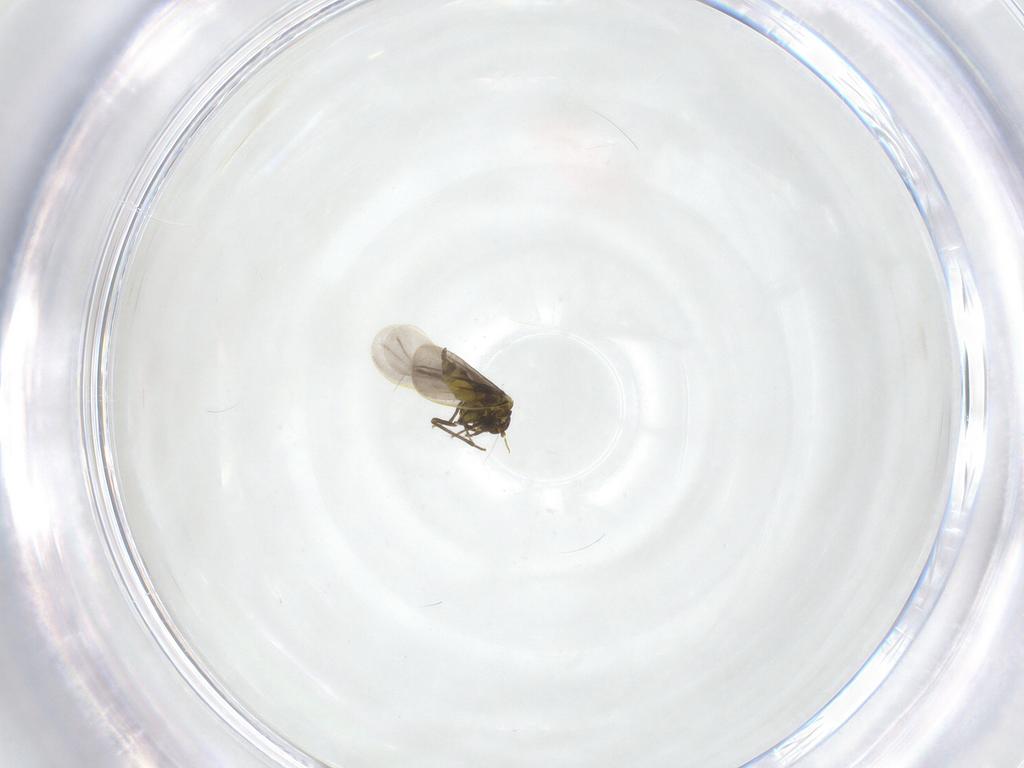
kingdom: Animalia
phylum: Arthropoda
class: Insecta
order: Hemiptera
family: Aleyrodidae
